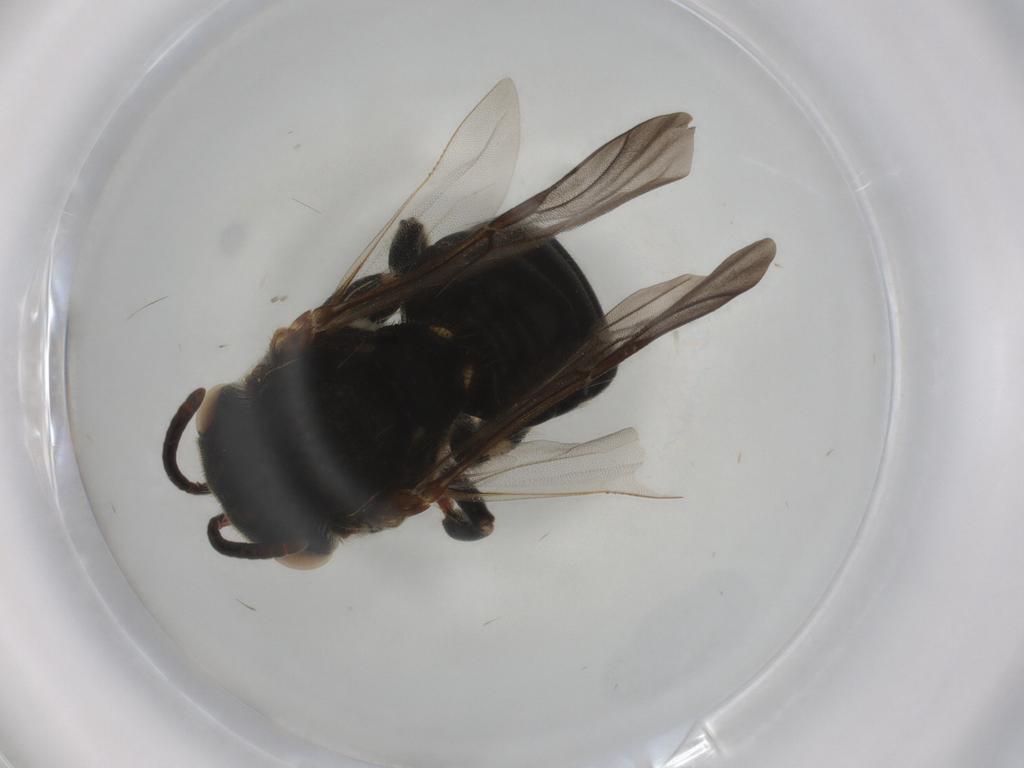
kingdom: Animalia
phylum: Arthropoda
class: Insecta
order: Hymenoptera
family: Apidae
